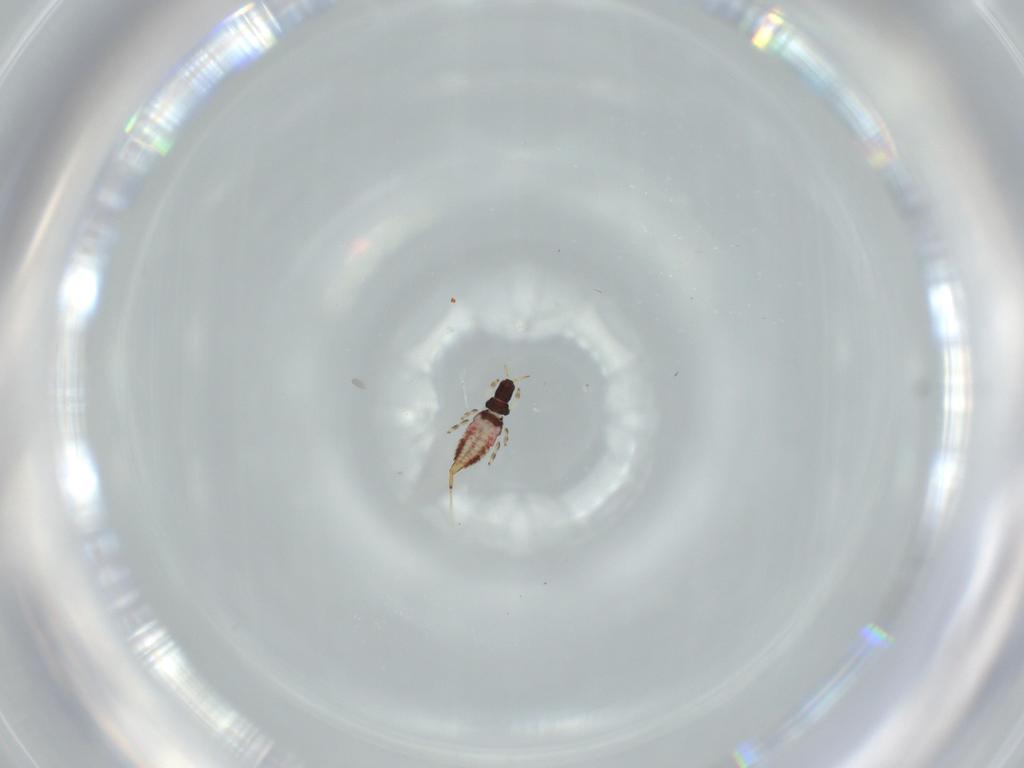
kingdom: Animalia
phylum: Arthropoda
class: Insecta
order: Thysanoptera
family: Phlaeothripidae
